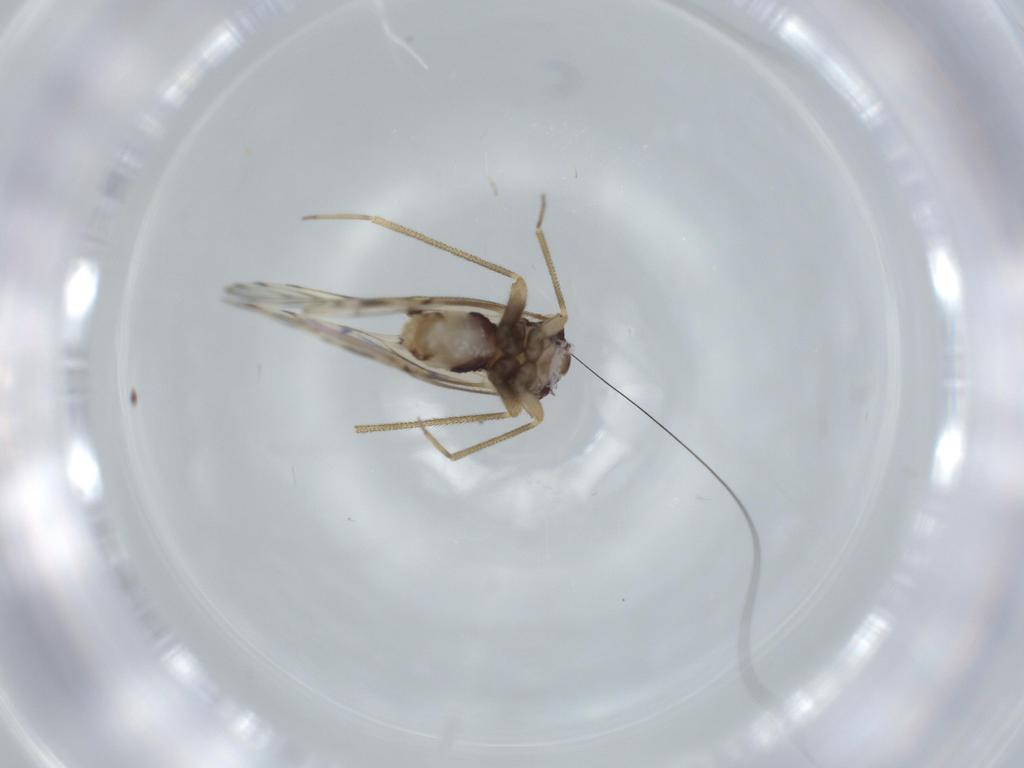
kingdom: Animalia
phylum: Arthropoda
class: Insecta
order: Psocodea
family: Epipsocidae
